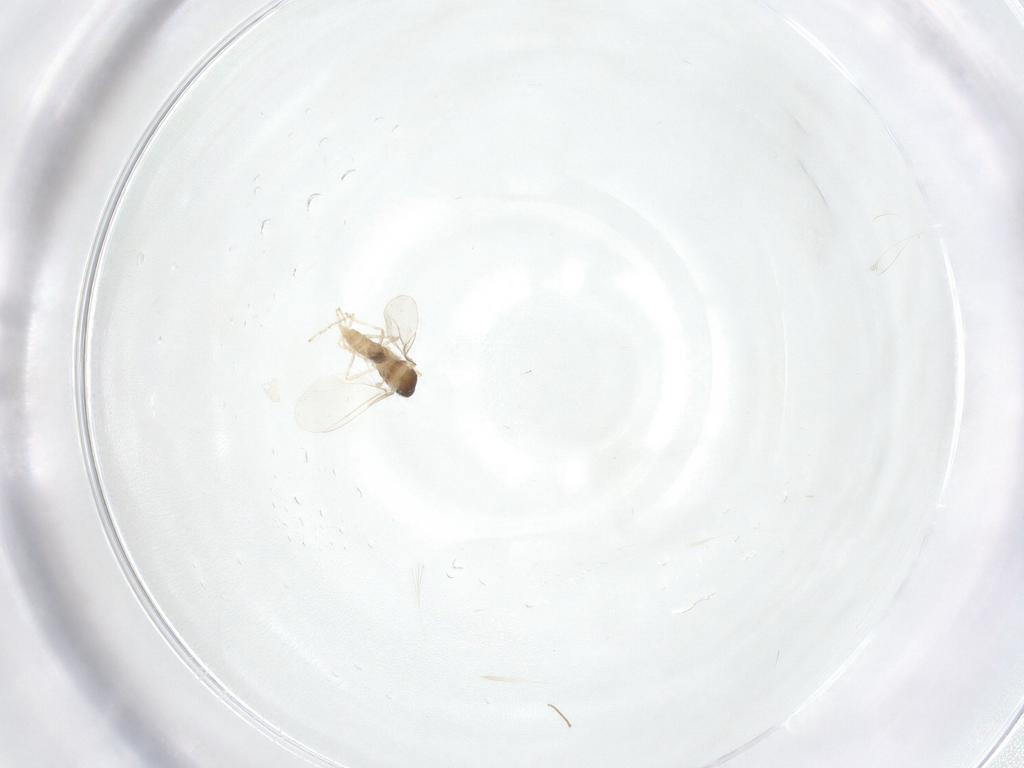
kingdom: Animalia
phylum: Arthropoda
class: Insecta
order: Diptera
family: Cecidomyiidae
